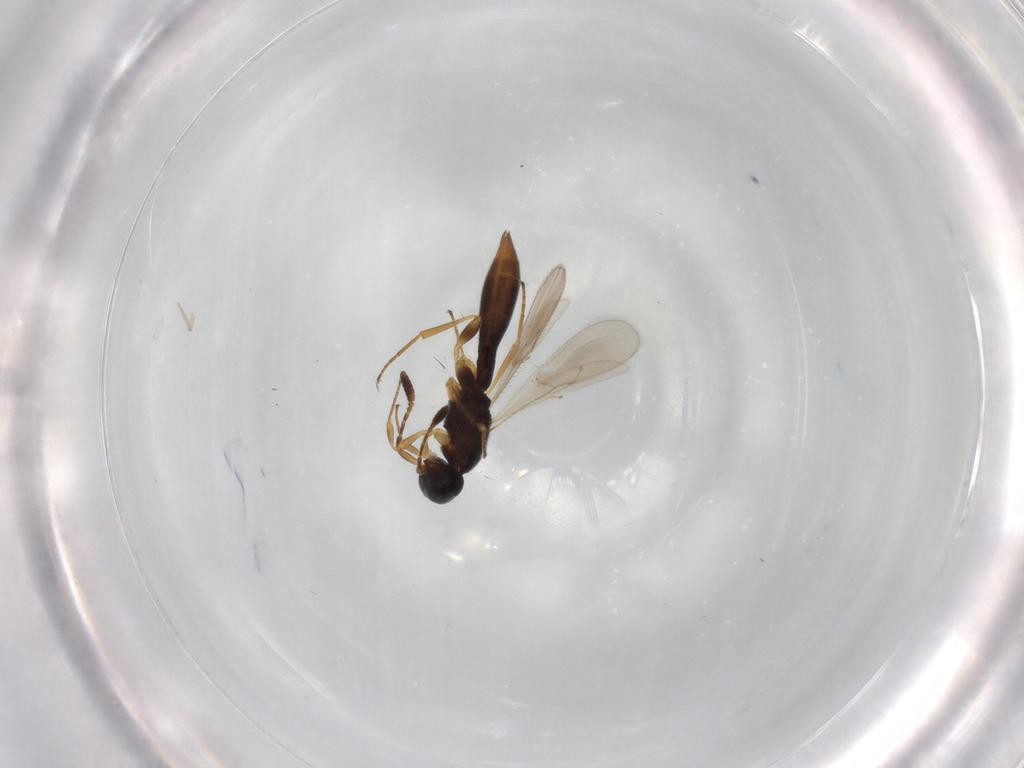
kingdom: Animalia
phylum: Arthropoda
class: Insecta
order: Hymenoptera
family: Scelionidae
